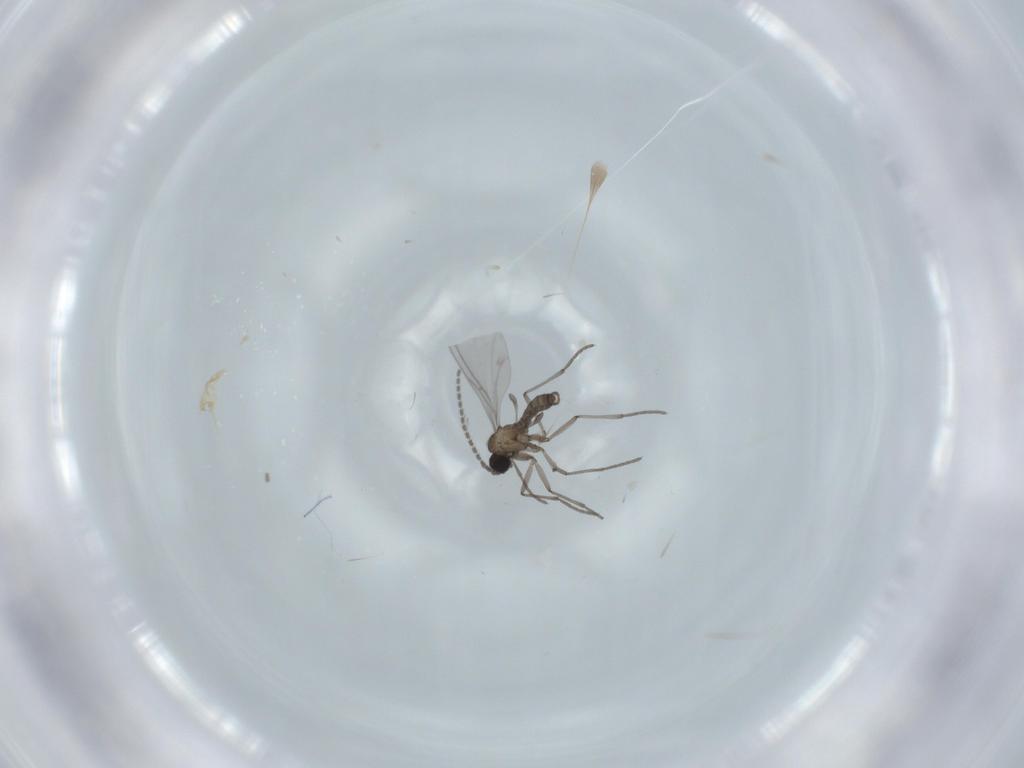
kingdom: Animalia
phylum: Arthropoda
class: Insecta
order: Diptera
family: Sciaridae
